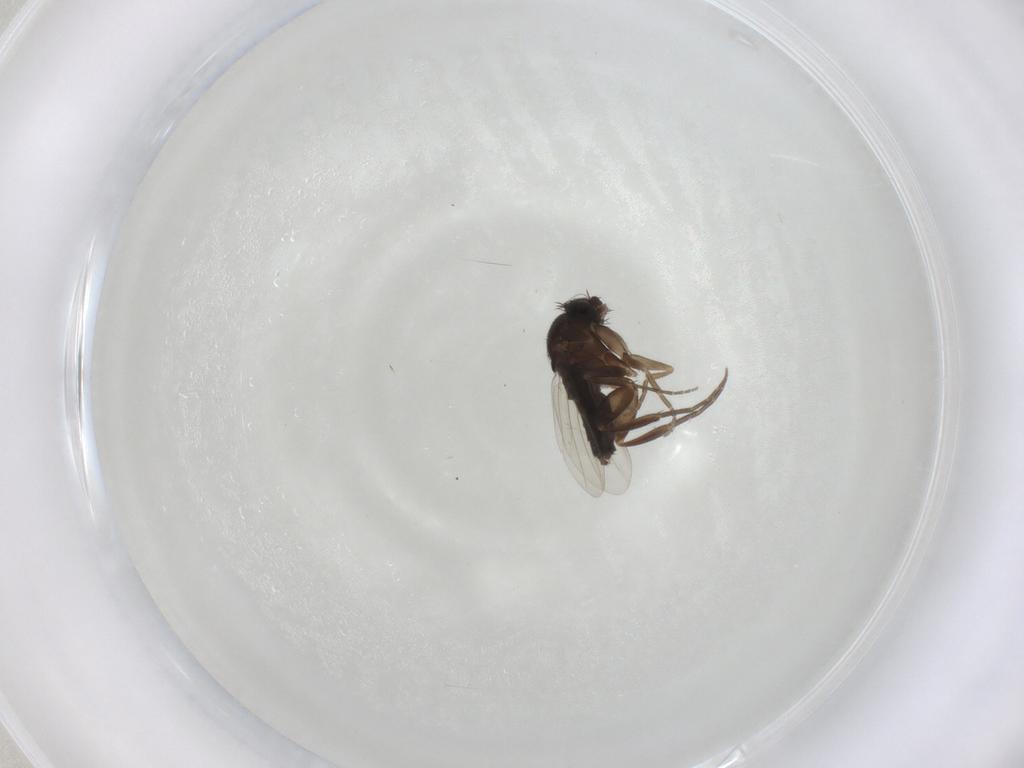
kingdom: Animalia
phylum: Arthropoda
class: Insecta
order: Diptera
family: Phoridae
